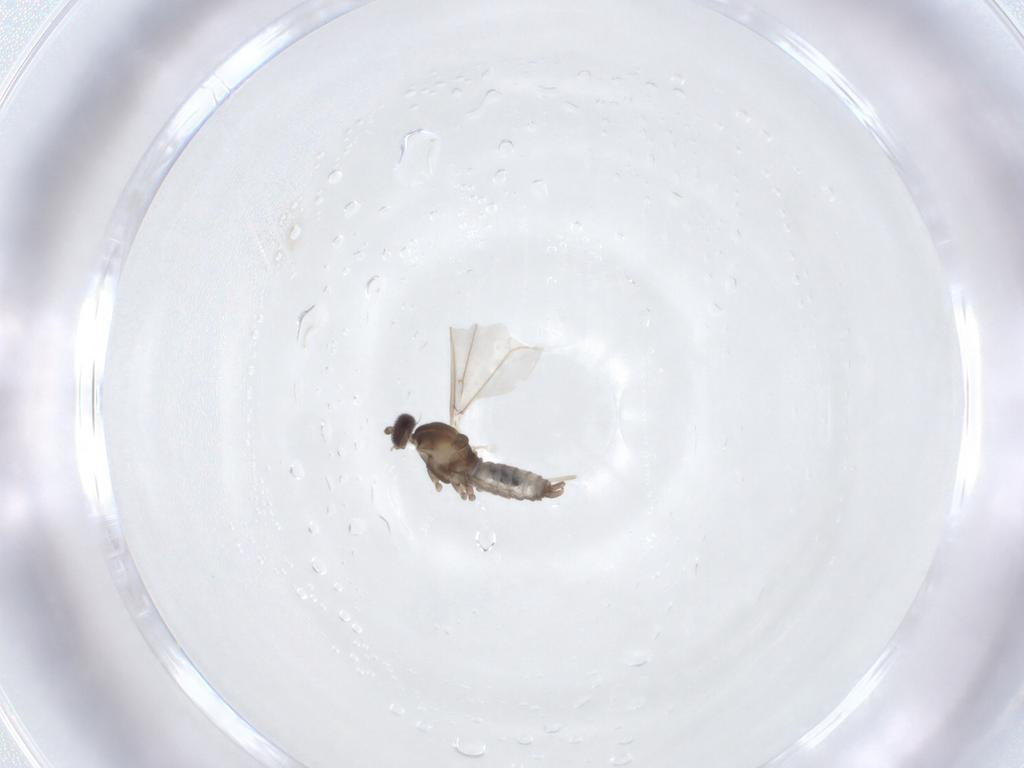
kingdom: Animalia
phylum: Arthropoda
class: Insecta
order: Diptera
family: Cecidomyiidae
